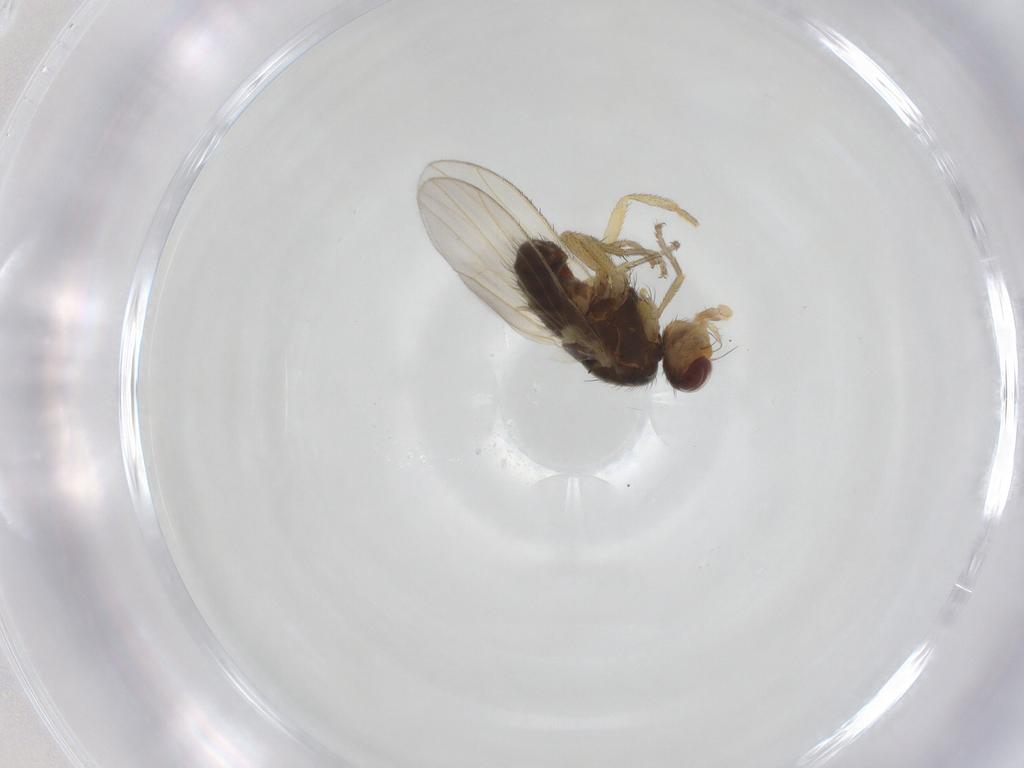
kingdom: Animalia
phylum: Arthropoda
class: Insecta
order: Diptera
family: Heleomyzidae
